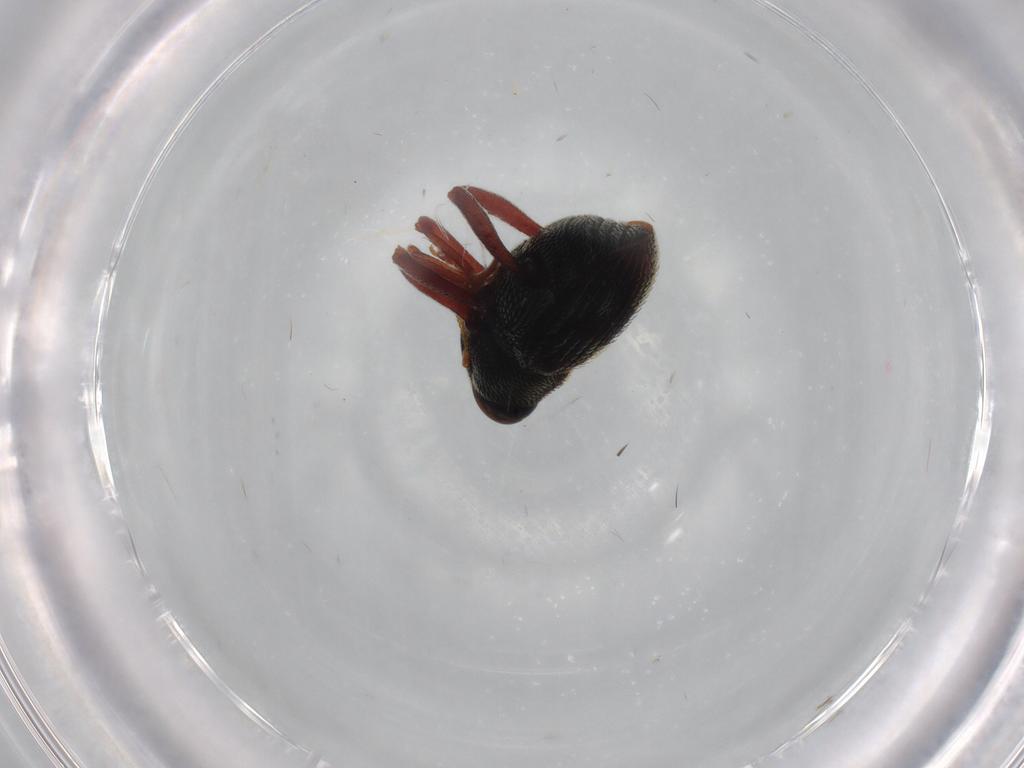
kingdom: Animalia
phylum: Arthropoda
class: Insecta
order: Coleoptera
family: Curculionidae
